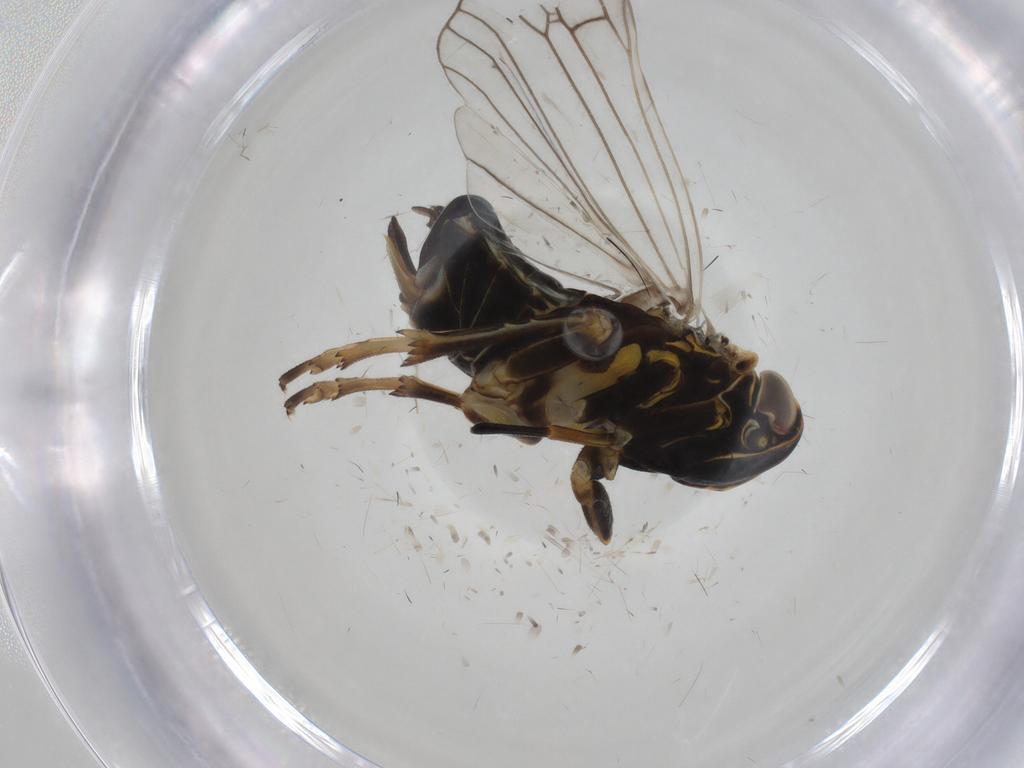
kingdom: Animalia
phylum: Arthropoda
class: Insecta
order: Hemiptera
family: Cixiidae
